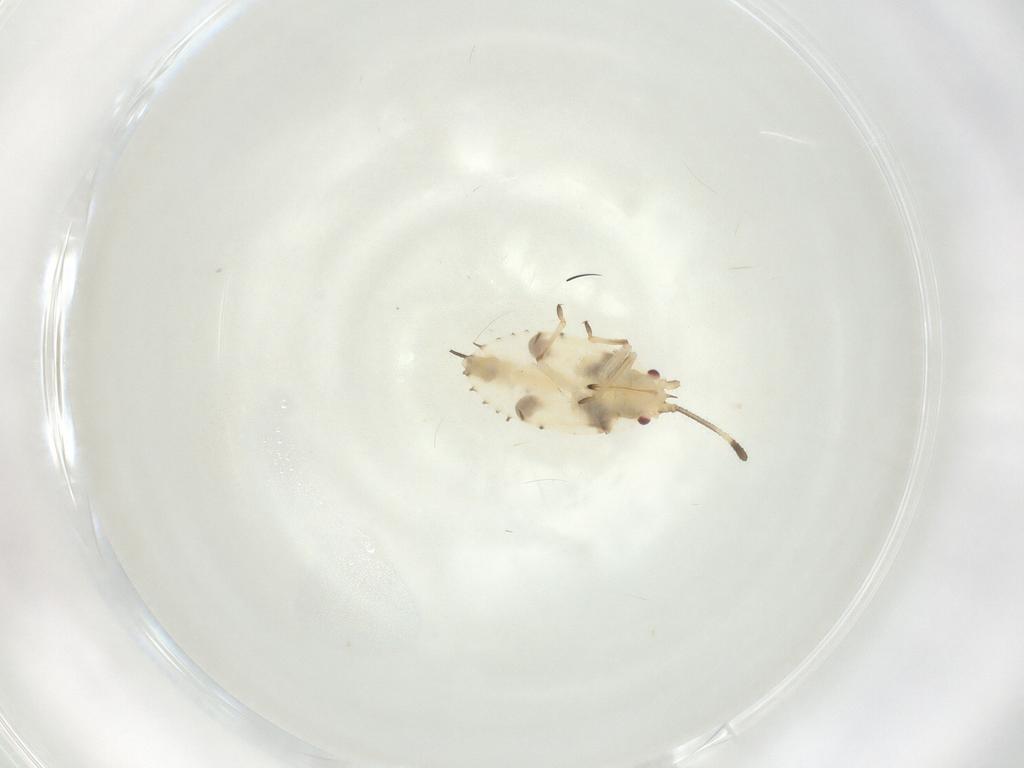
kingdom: Animalia
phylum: Arthropoda
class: Insecta
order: Hemiptera
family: Tingidae
